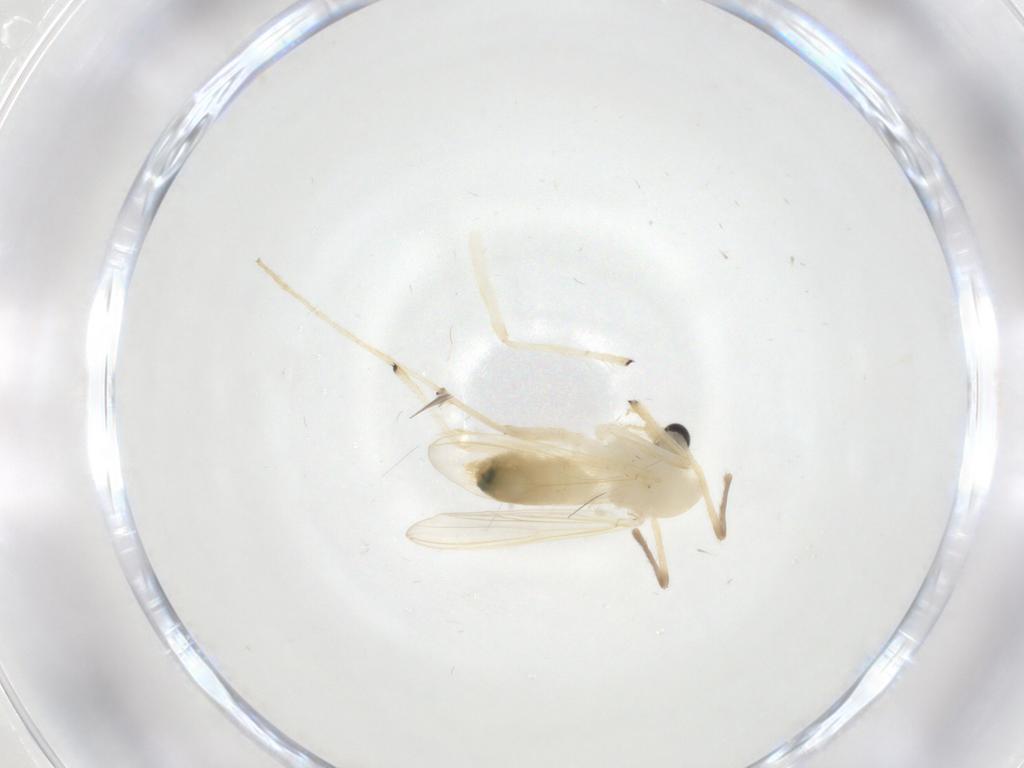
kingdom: Animalia
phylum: Arthropoda
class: Insecta
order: Diptera
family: Chironomidae
